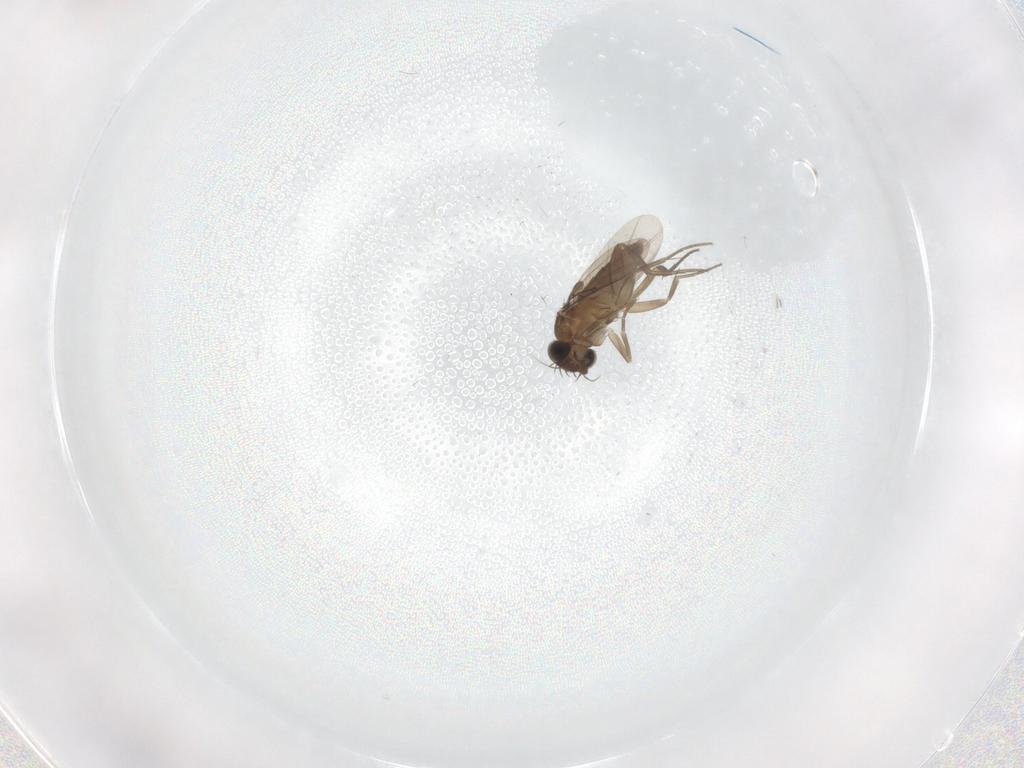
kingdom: Animalia
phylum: Arthropoda
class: Insecta
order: Diptera
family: Phoridae
